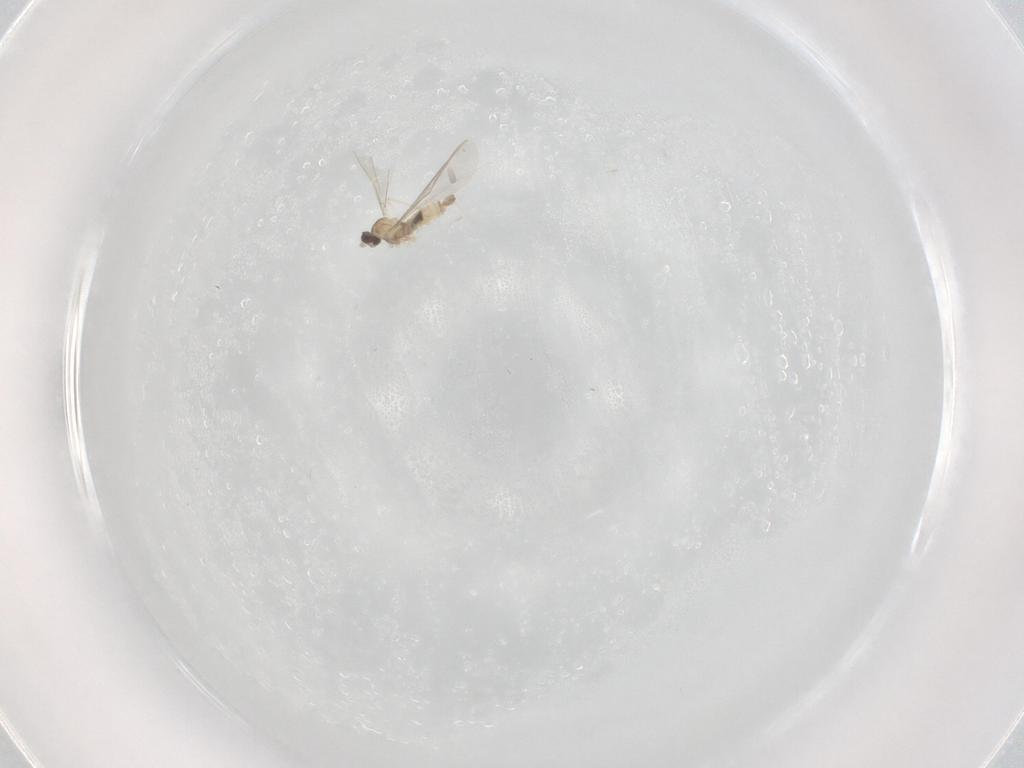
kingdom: Animalia
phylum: Arthropoda
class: Insecta
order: Diptera
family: Cecidomyiidae
